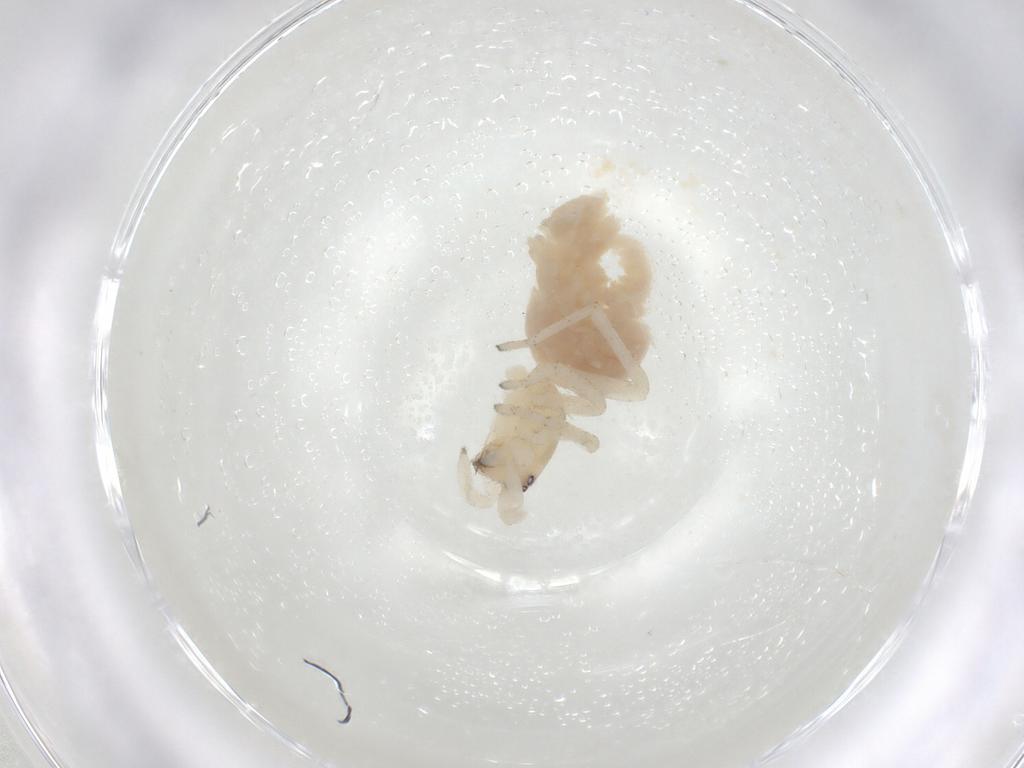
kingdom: Animalia
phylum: Arthropoda
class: Arachnida
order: Araneae
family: Anyphaenidae
